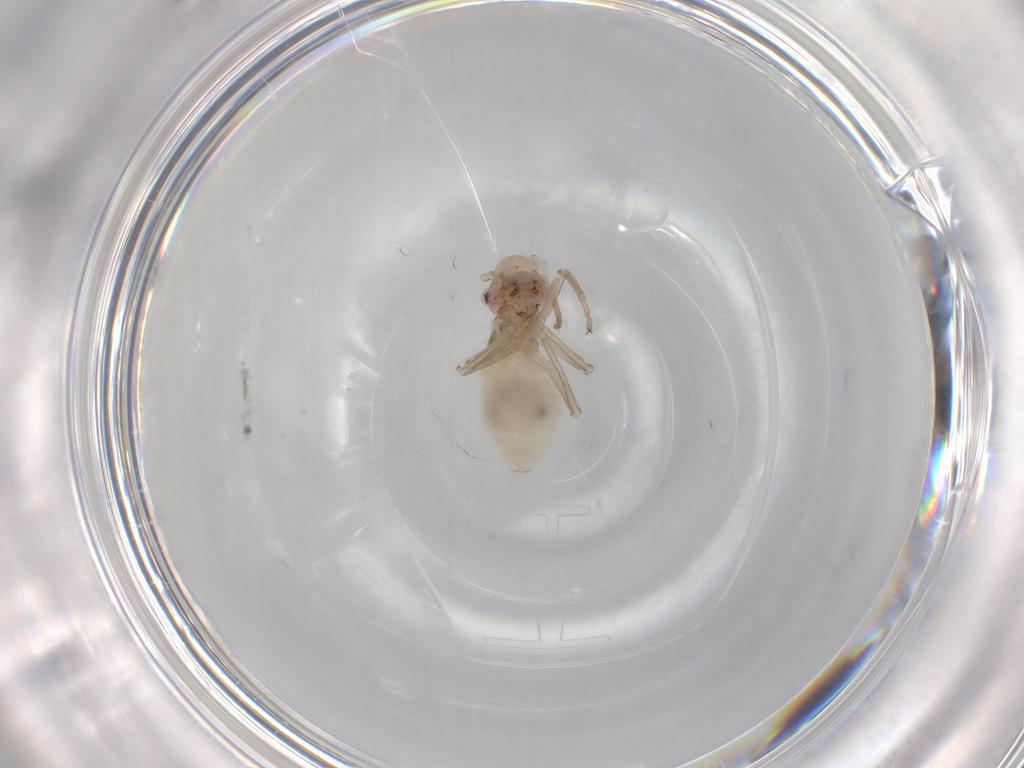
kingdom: Animalia
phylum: Arthropoda
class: Insecta
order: Psocodea
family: Stenopsocidae
